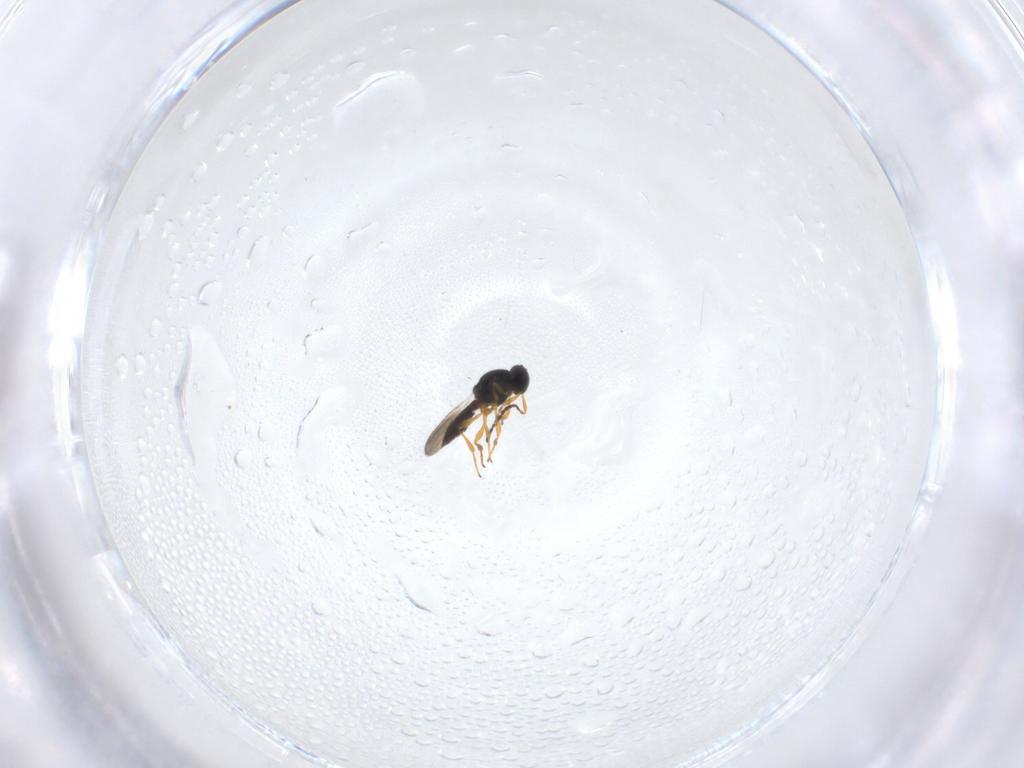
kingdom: Animalia
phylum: Arthropoda
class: Insecta
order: Hymenoptera
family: Platygastridae
